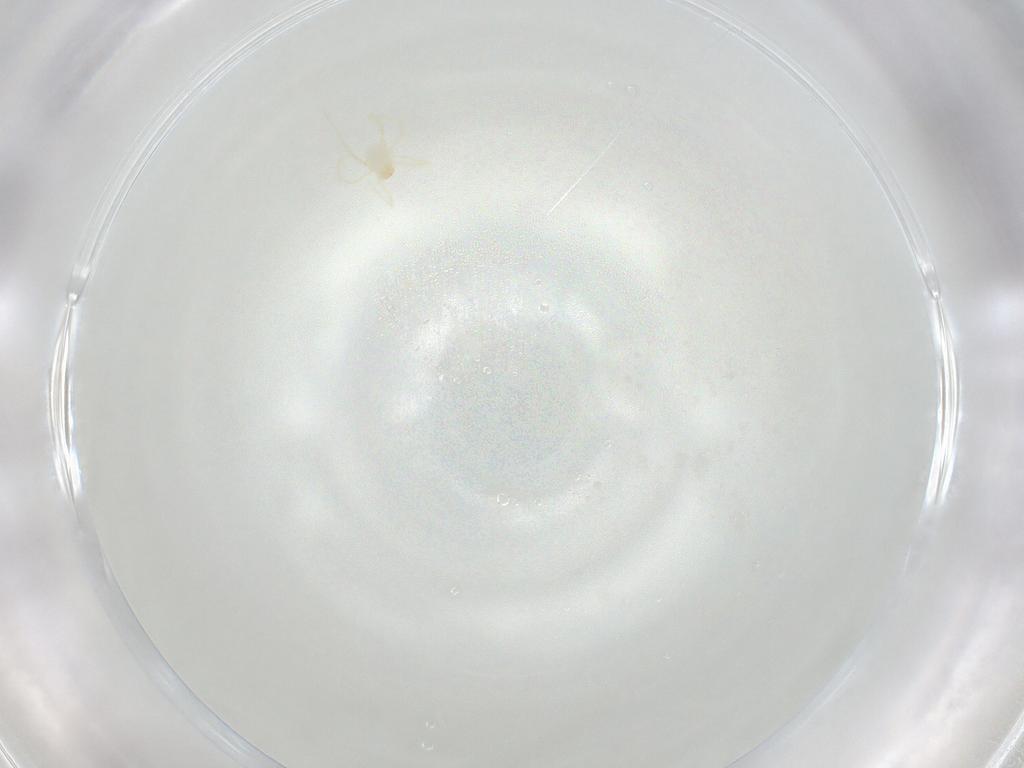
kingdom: Animalia
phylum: Arthropoda
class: Arachnida
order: Trombidiformes
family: Erythraeidae
